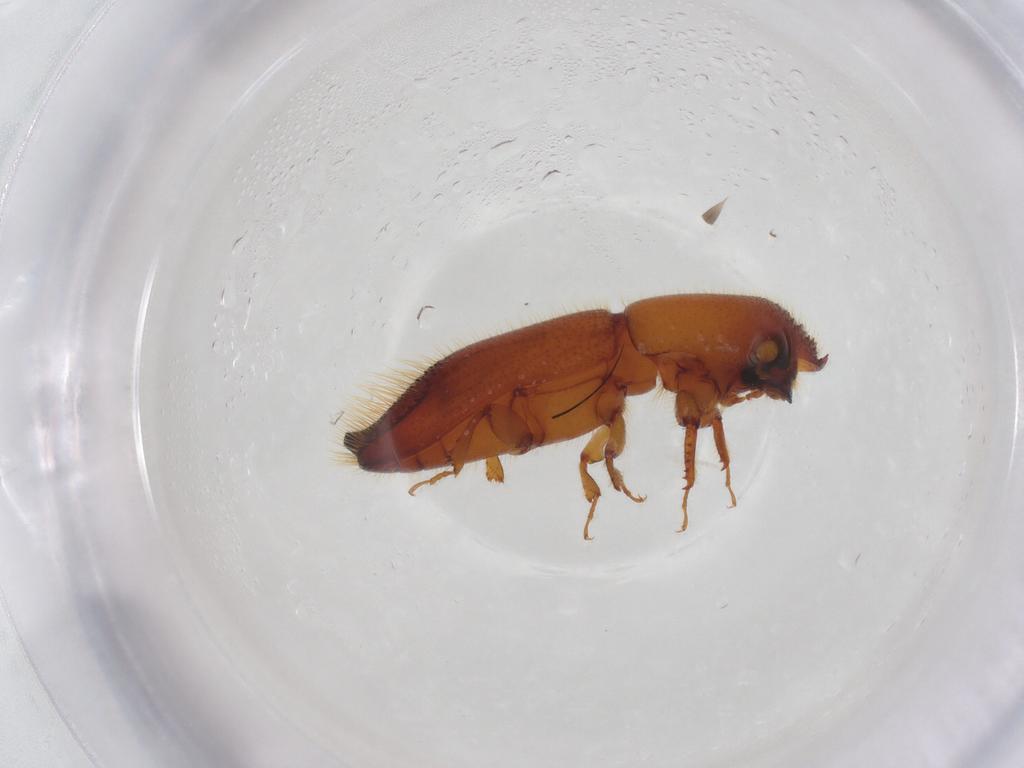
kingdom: Animalia
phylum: Arthropoda
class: Insecta
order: Coleoptera
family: Curculionidae
